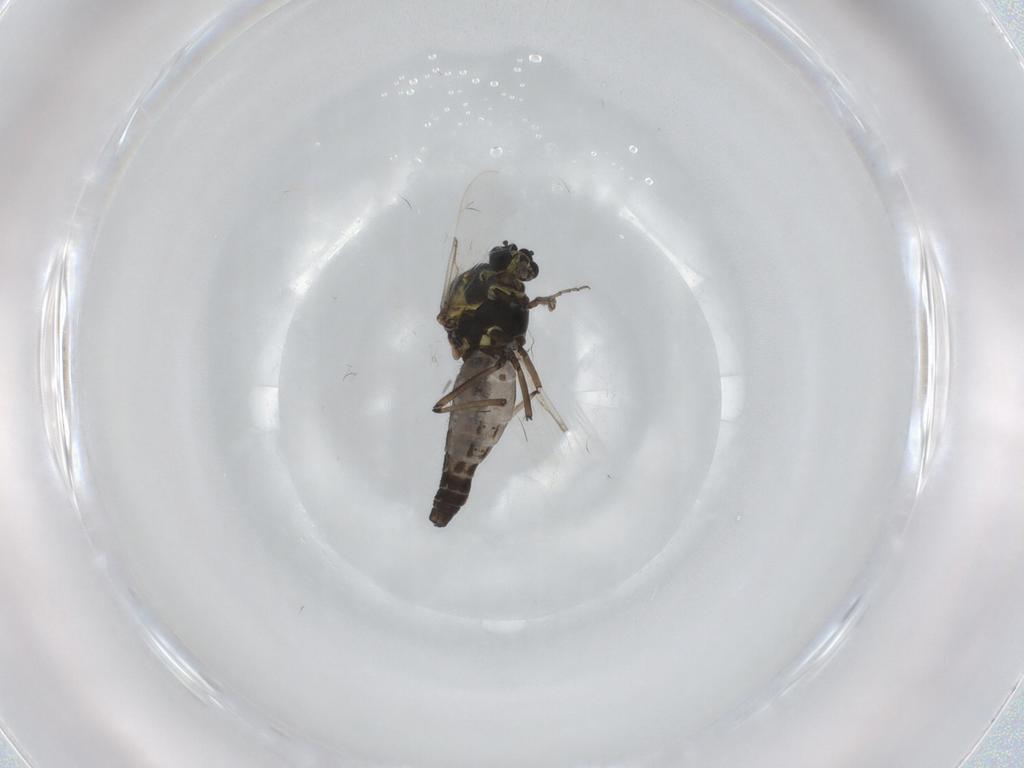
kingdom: Animalia
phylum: Arthropoda
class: Insecta
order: Diptera
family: Ceratopogonidae
